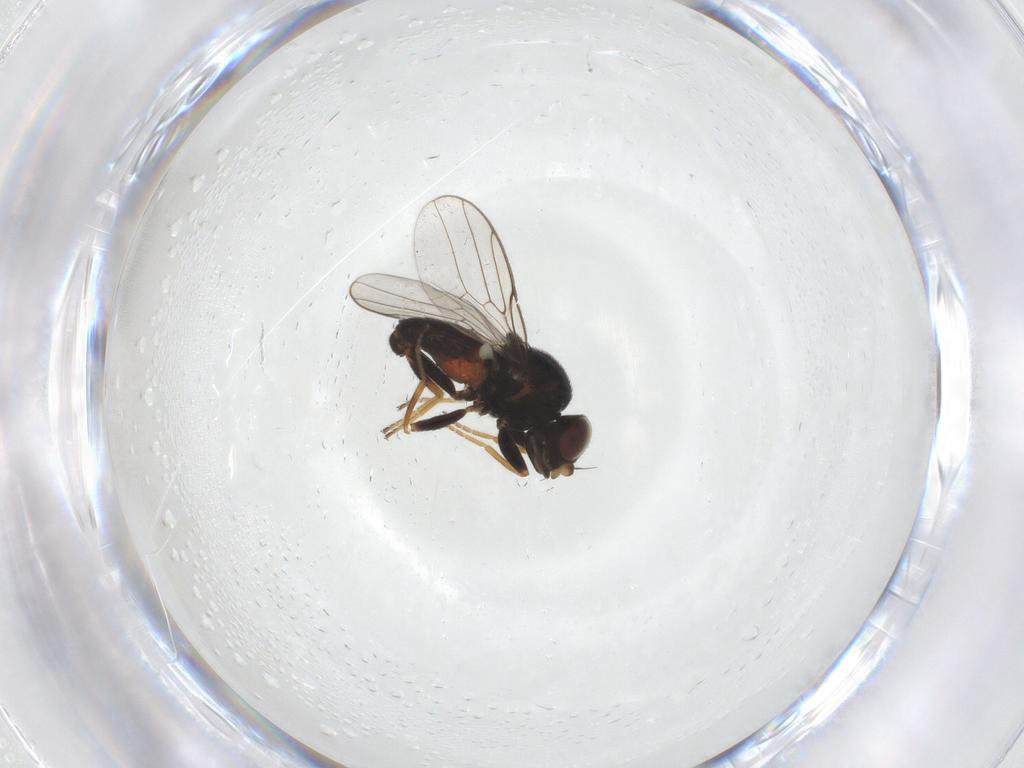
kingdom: Animalia
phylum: Arthropoda
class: Insecta
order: Diptera
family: Chloropidae
